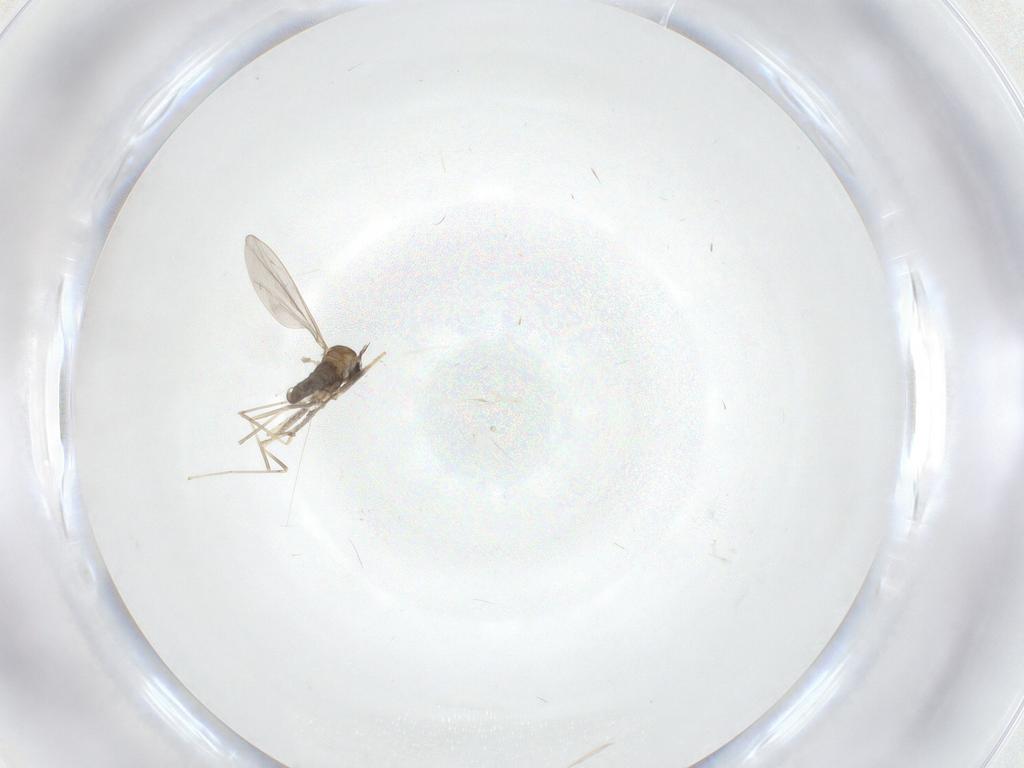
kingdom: Animalia
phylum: Arthropoda
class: Insecta
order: Diptera
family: Cecidomyiidae
